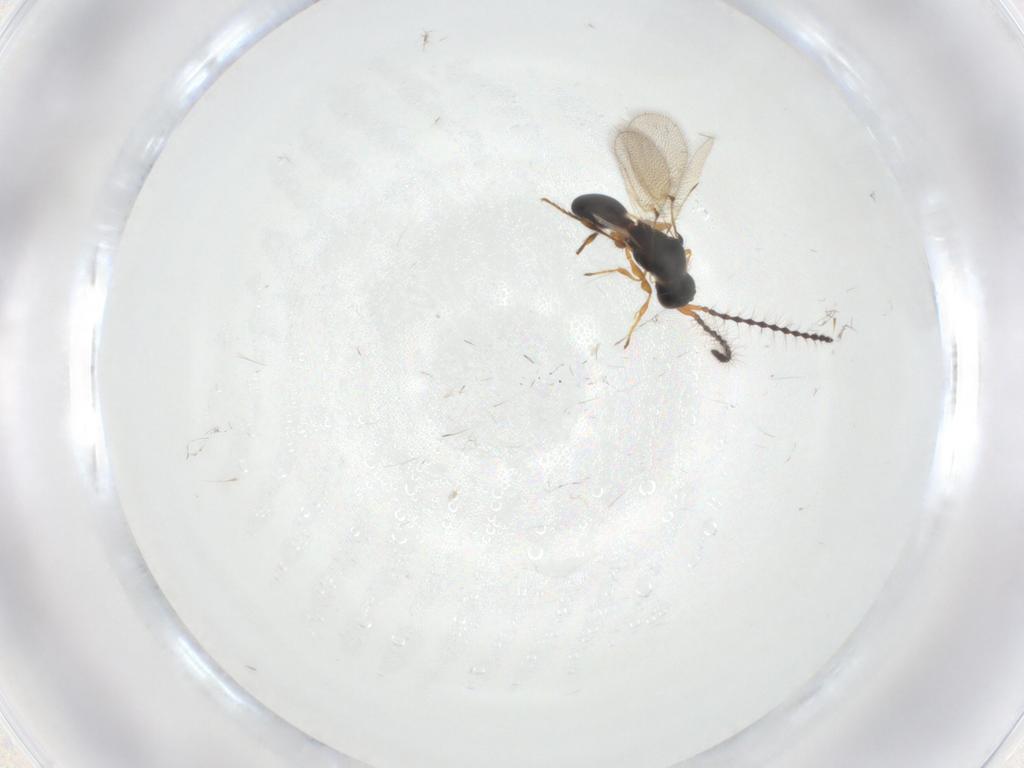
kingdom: Animalia
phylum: Arthropoda
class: Insecta
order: Hymenoptera
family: Diapriidae
